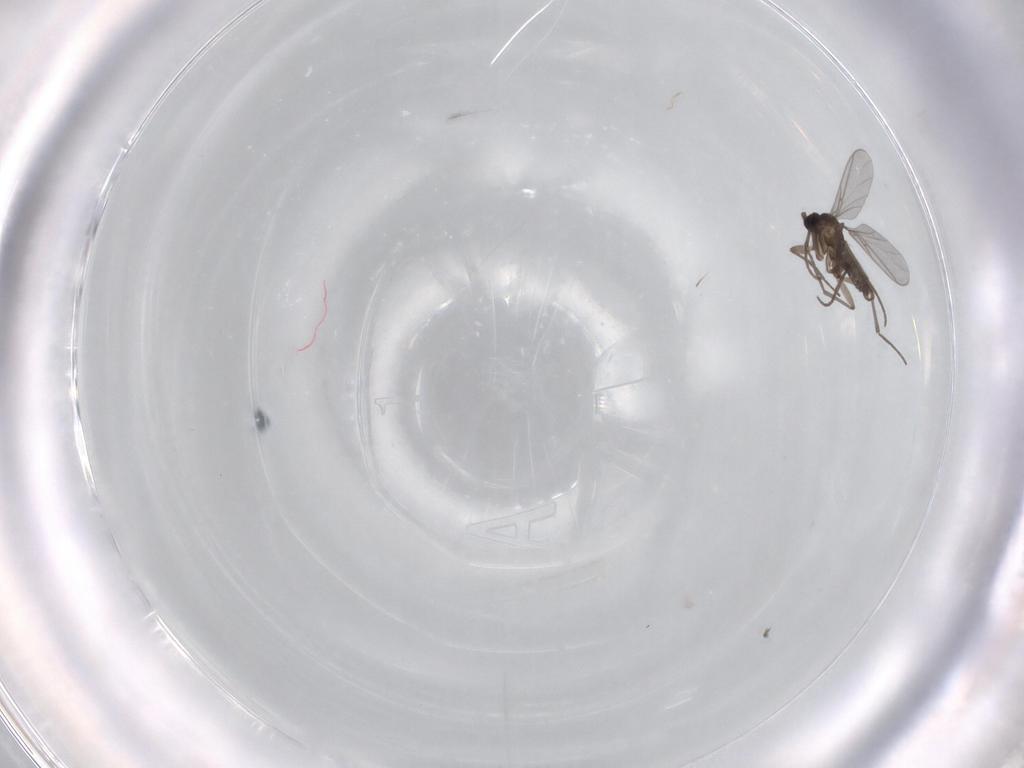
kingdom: Animalia
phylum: Arthropoda
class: Insecta
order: Diptera
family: Sciaridae
